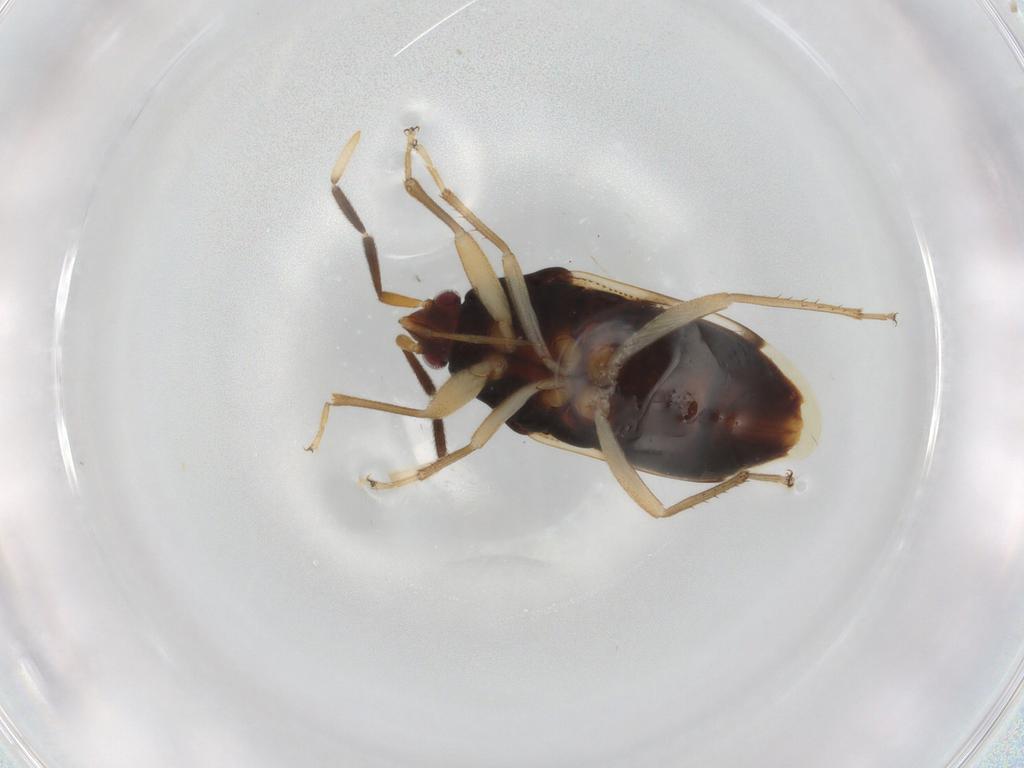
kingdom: Animalia
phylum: Arthropoda
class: Insecta
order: Hemiptera
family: Cicadellidae
